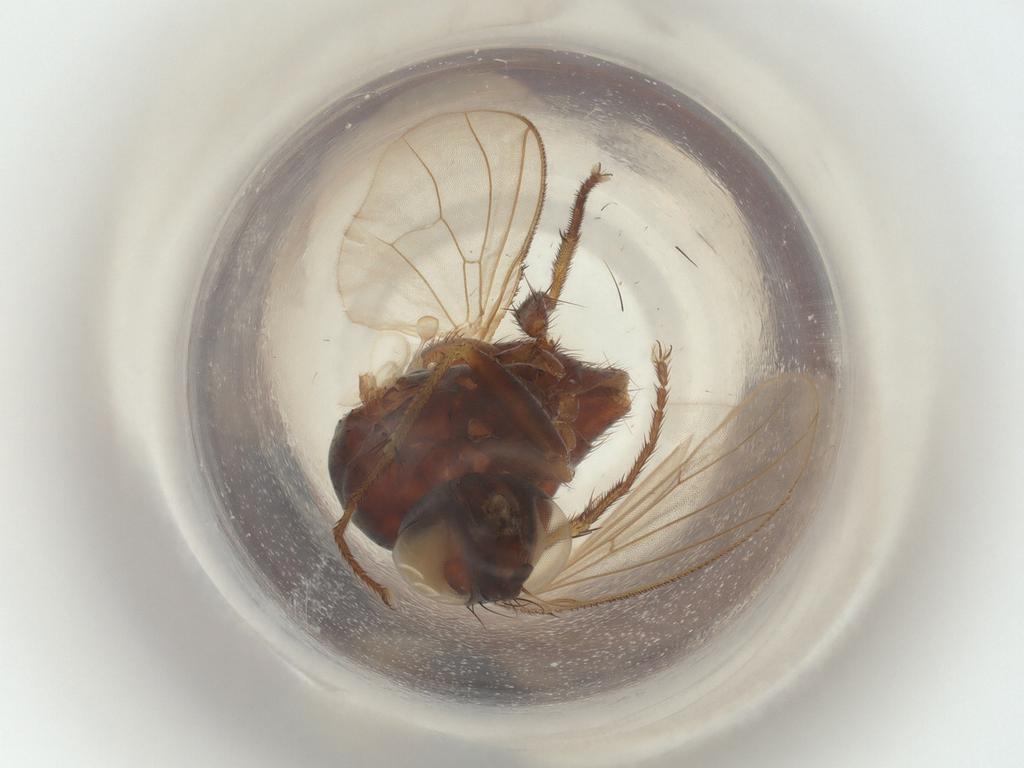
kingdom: Animalia
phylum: Arthropoda
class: Insecta
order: Diptera
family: Muscidae
